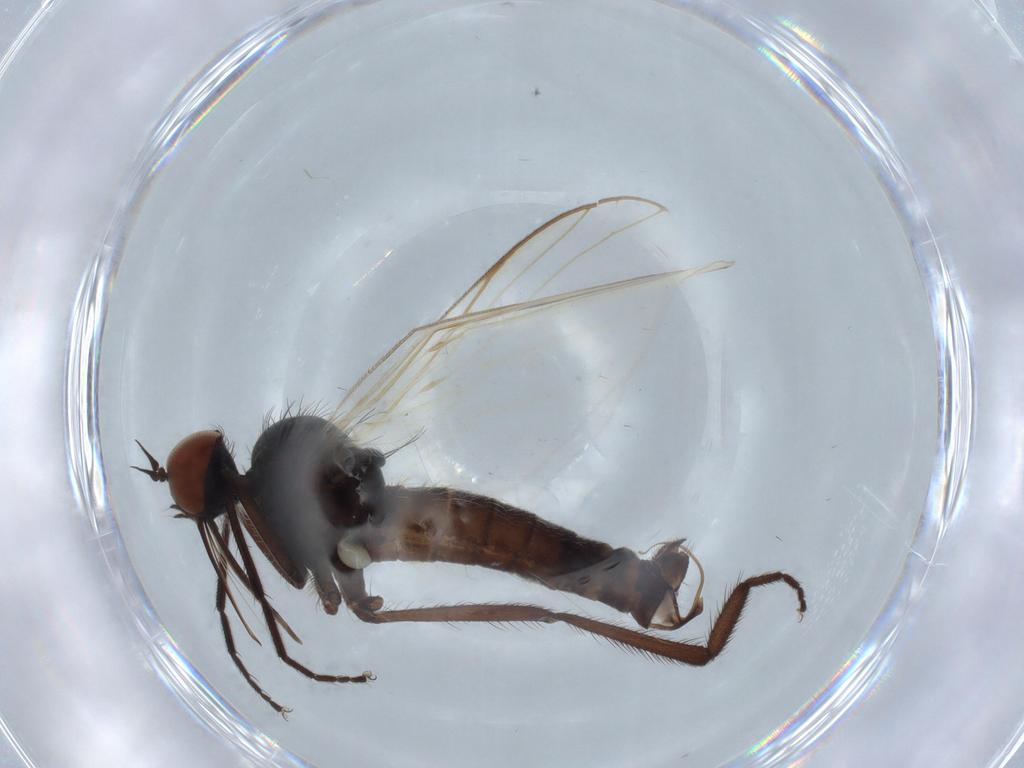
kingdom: Animalia
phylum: Arthropoda
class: Insecta
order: Diptera
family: Empididae
